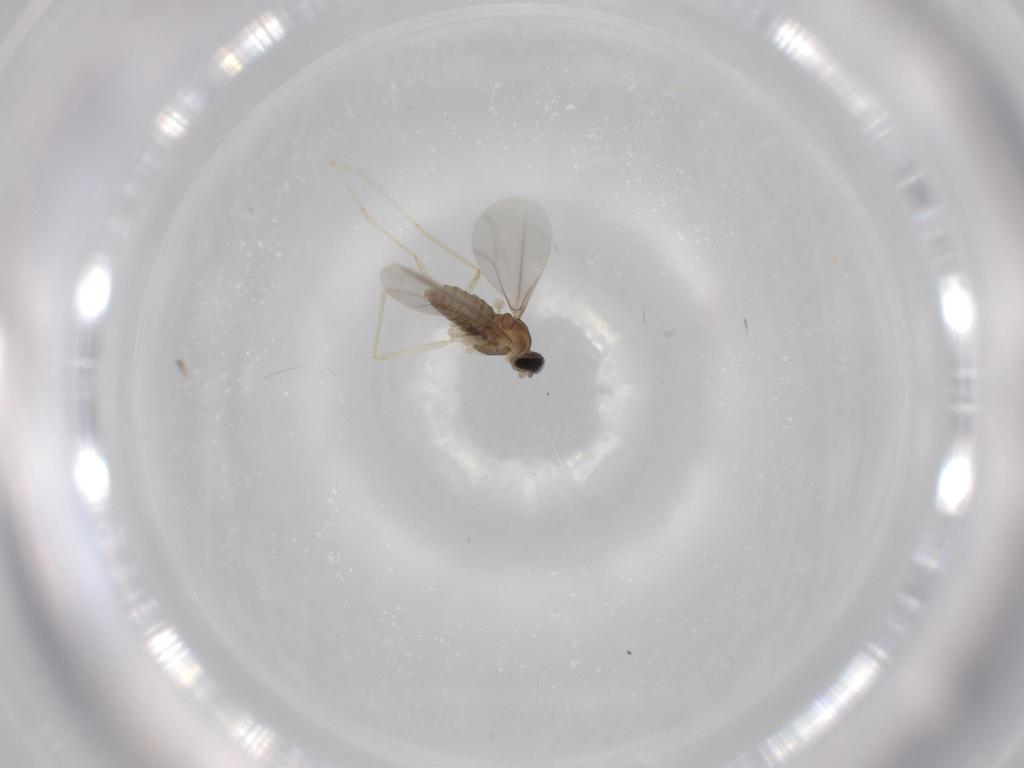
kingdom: Animalia
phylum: Arthropoda
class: Insecta
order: Diptera
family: Cecidomyiidae
